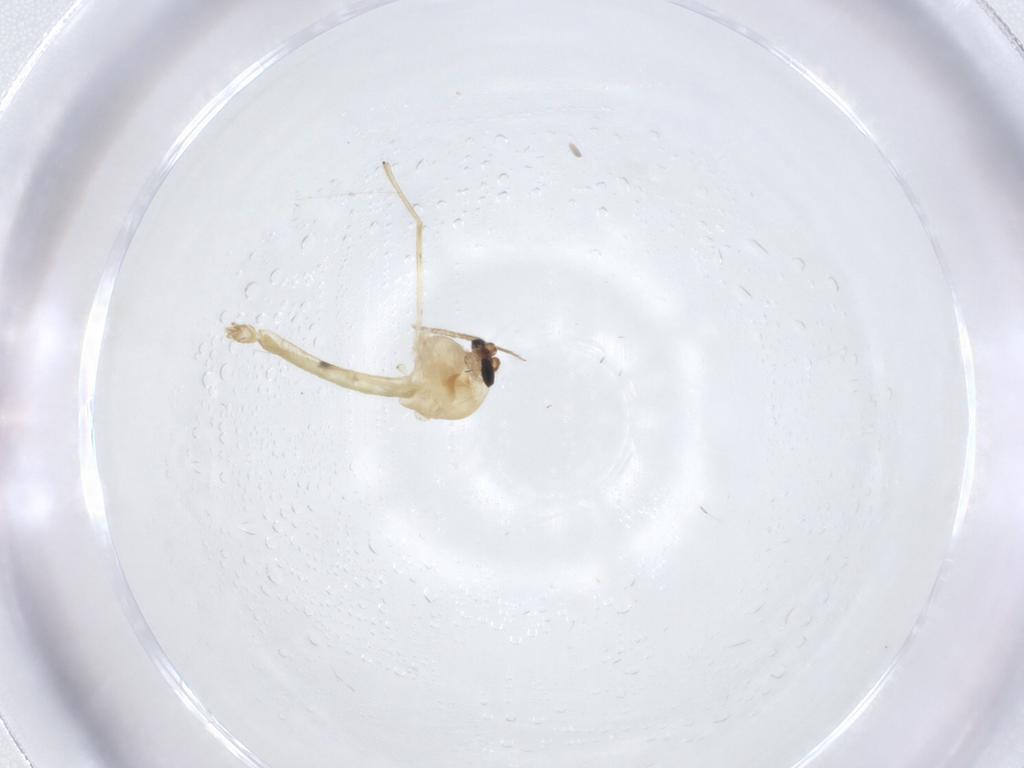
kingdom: Animalia
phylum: Arthropoda
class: Insecta
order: Diptera
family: Chironomidae
